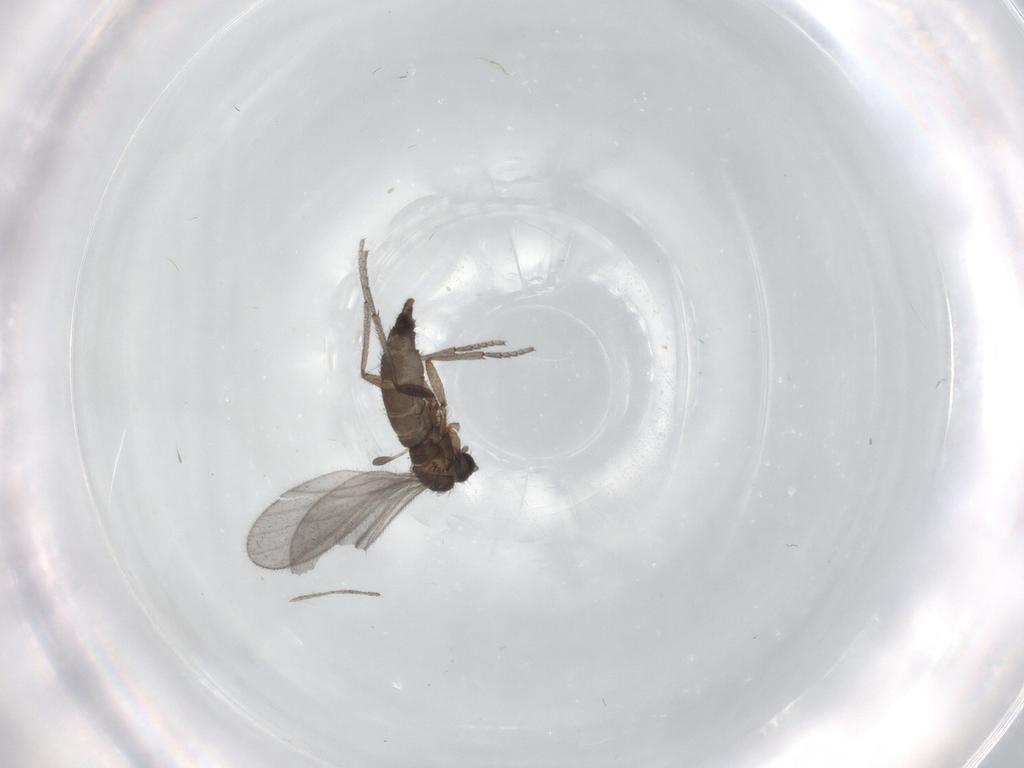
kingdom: Animalia
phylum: Arthropoda
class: Insecta
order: Diptera
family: Sciaridae
